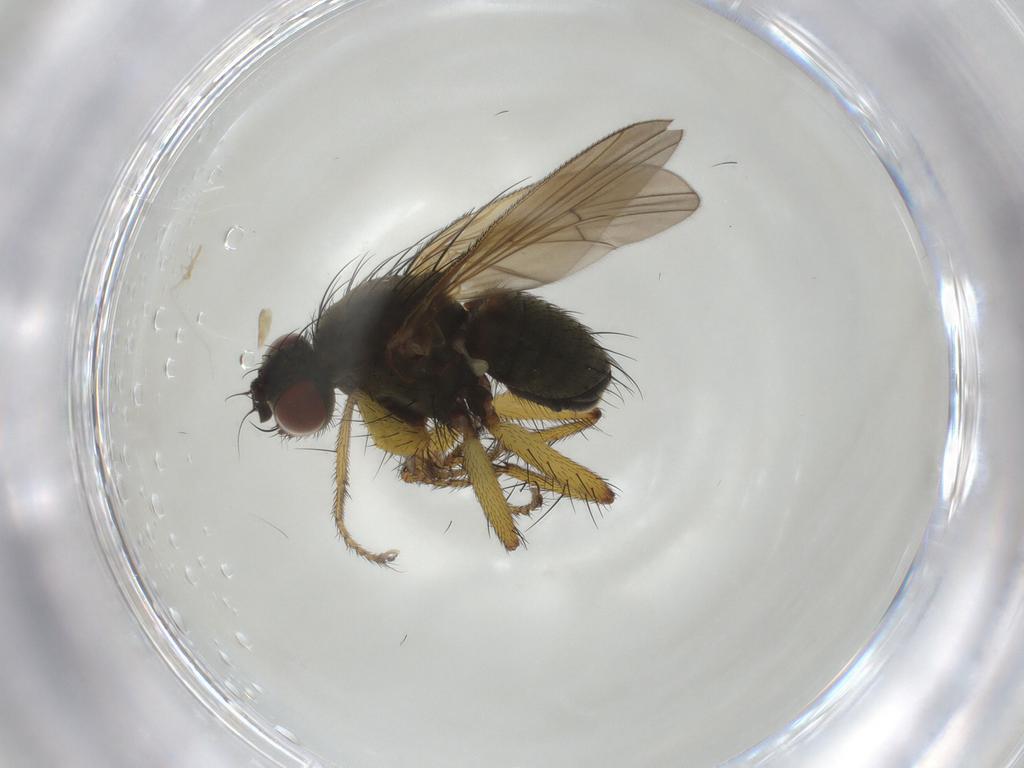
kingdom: Animalia
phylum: Arthropoda
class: Insecta
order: Diptera
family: Muscidae
